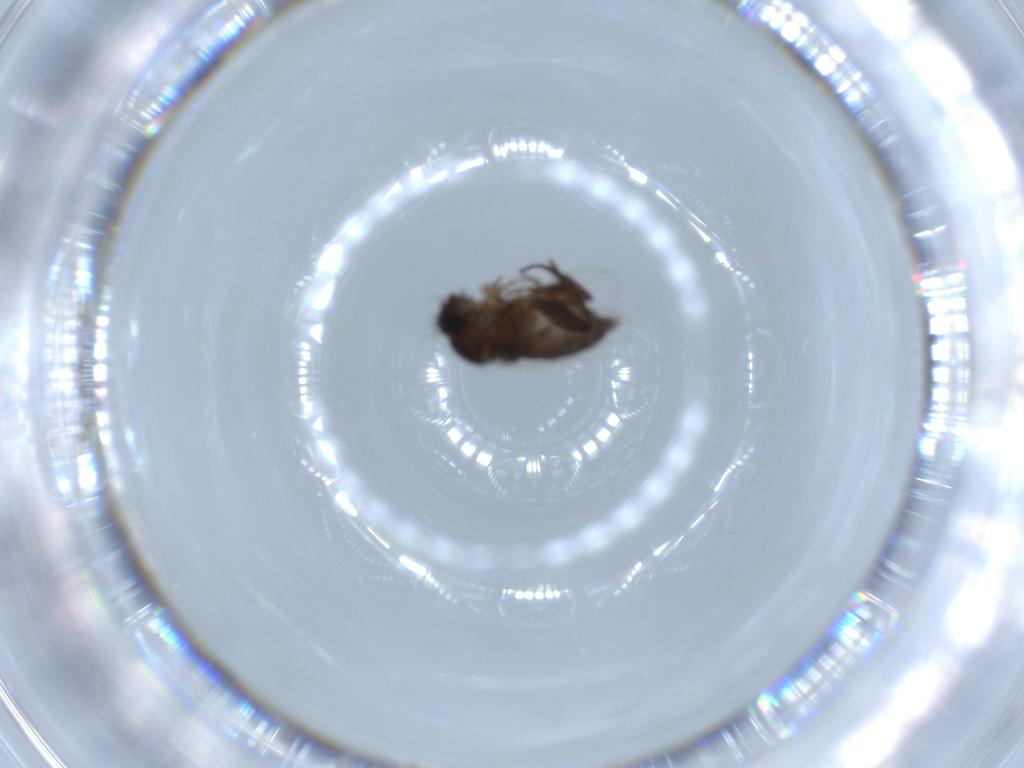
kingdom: Animalia
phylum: Arthropoda
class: Insecta
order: Diptera
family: Phoridae
